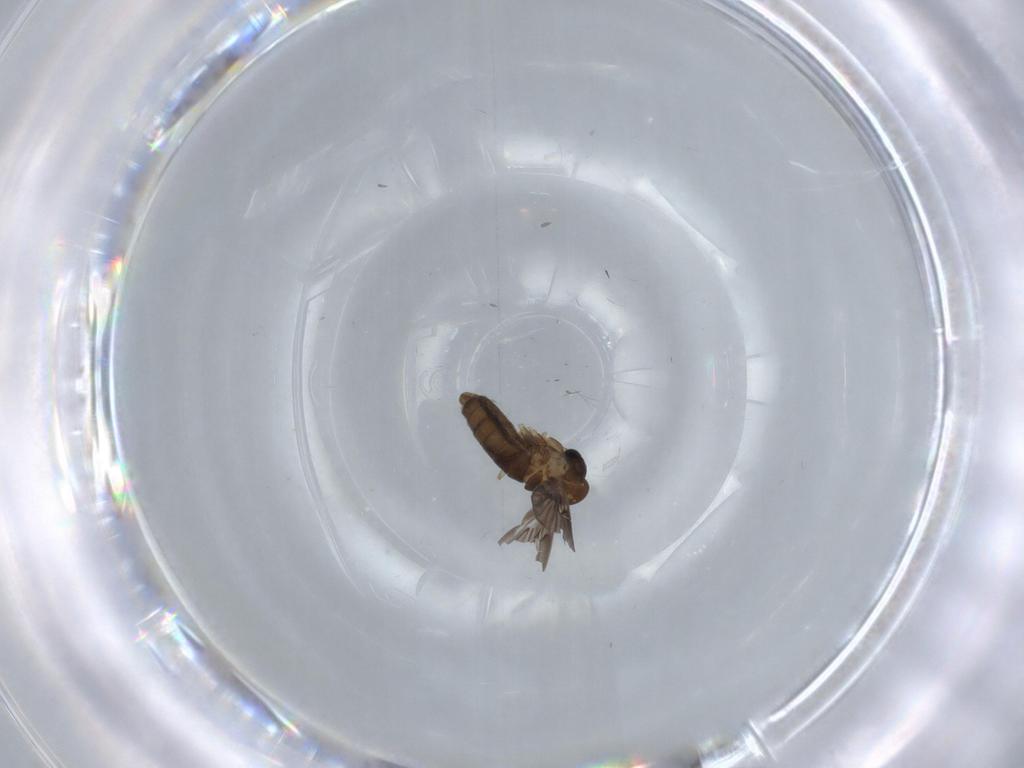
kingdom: Animalia
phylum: Arthropoda
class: Insecta
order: Diptera
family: Psychodidae
